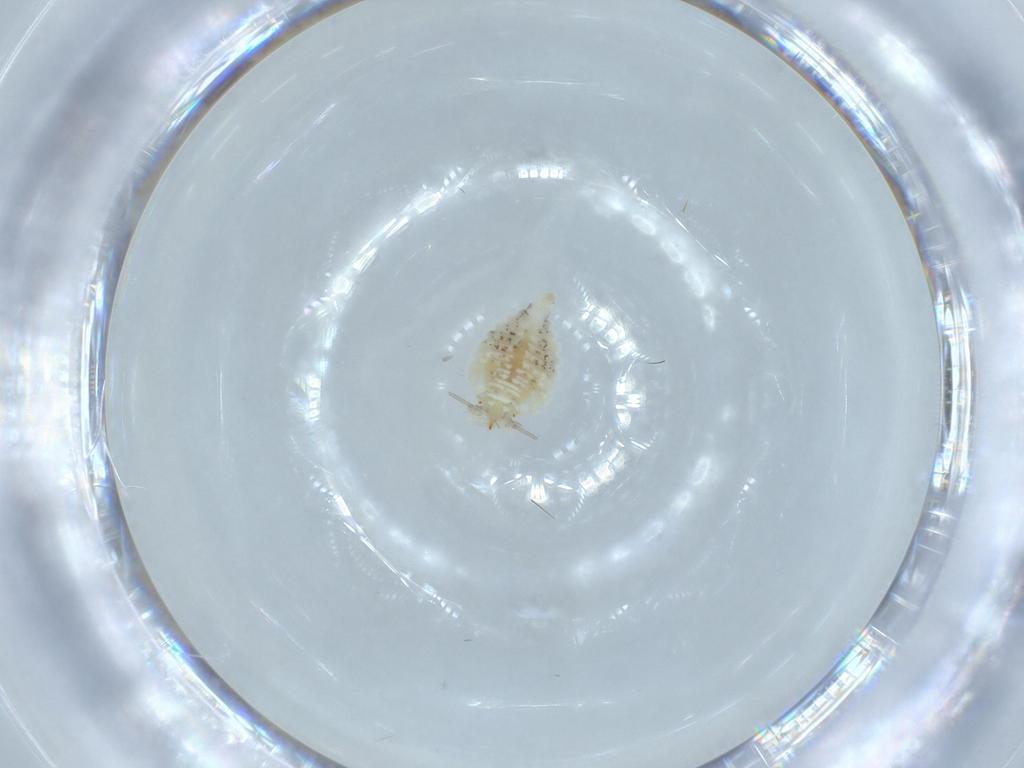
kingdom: Animalia
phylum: Arthropoda
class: Insecta
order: Neuroptera
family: Coniopterygidae
